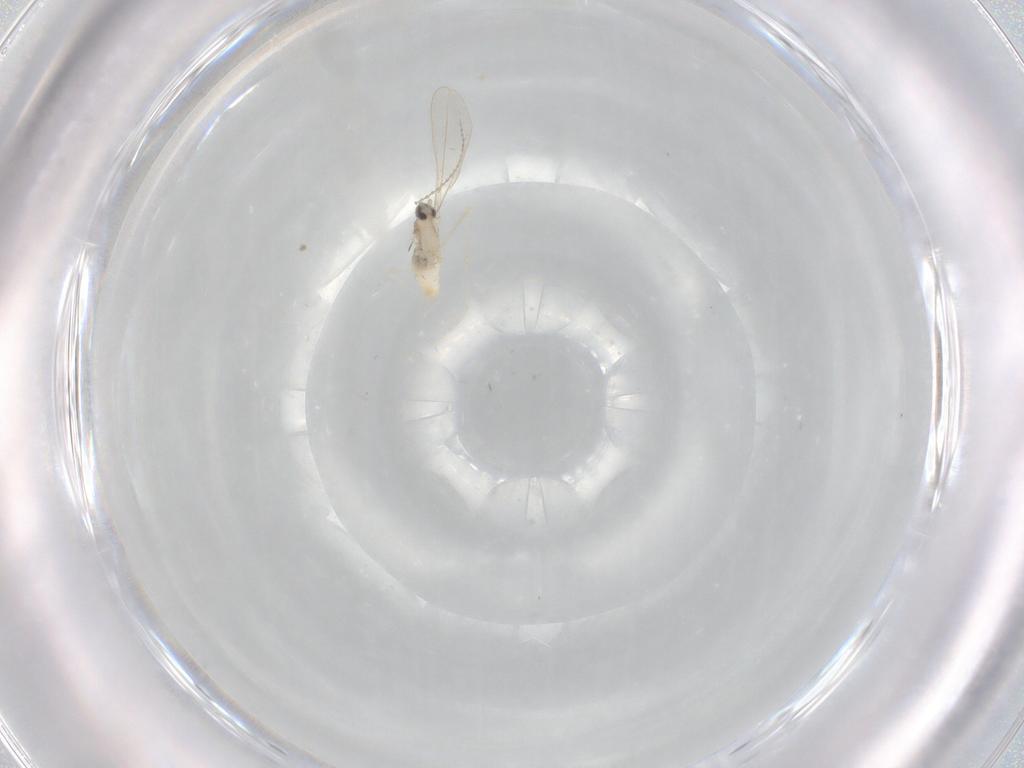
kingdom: Animalia
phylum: Arthropoda
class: Insecta
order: Diptera
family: Cecidomyiidae
